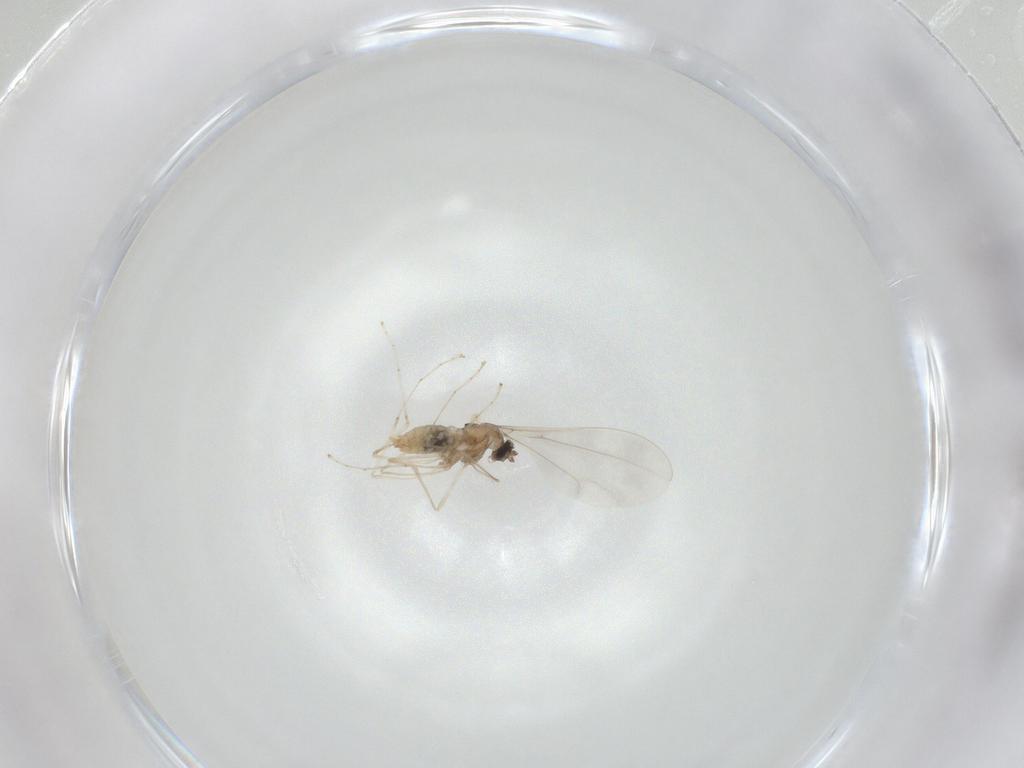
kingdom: Animalia
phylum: Arthropoda
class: Insecta
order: Diptera
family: Cecidomyiidae
